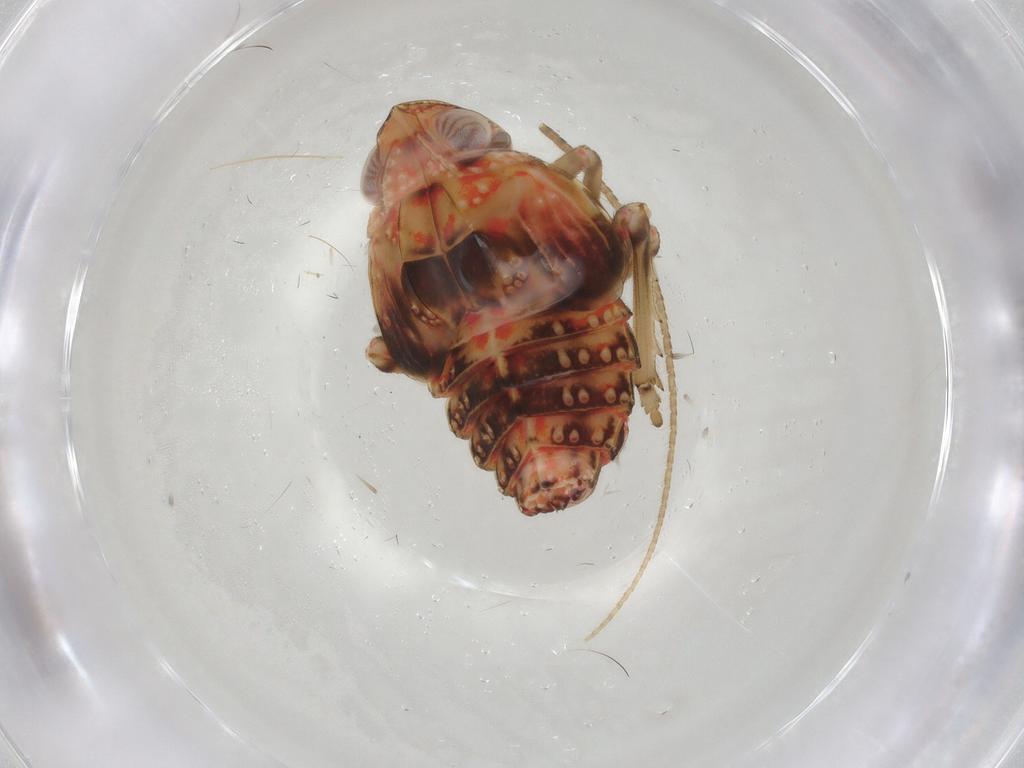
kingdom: Animalia
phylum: Arthropoda
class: Insecta
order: Hemiptera
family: Tropiduchidae
